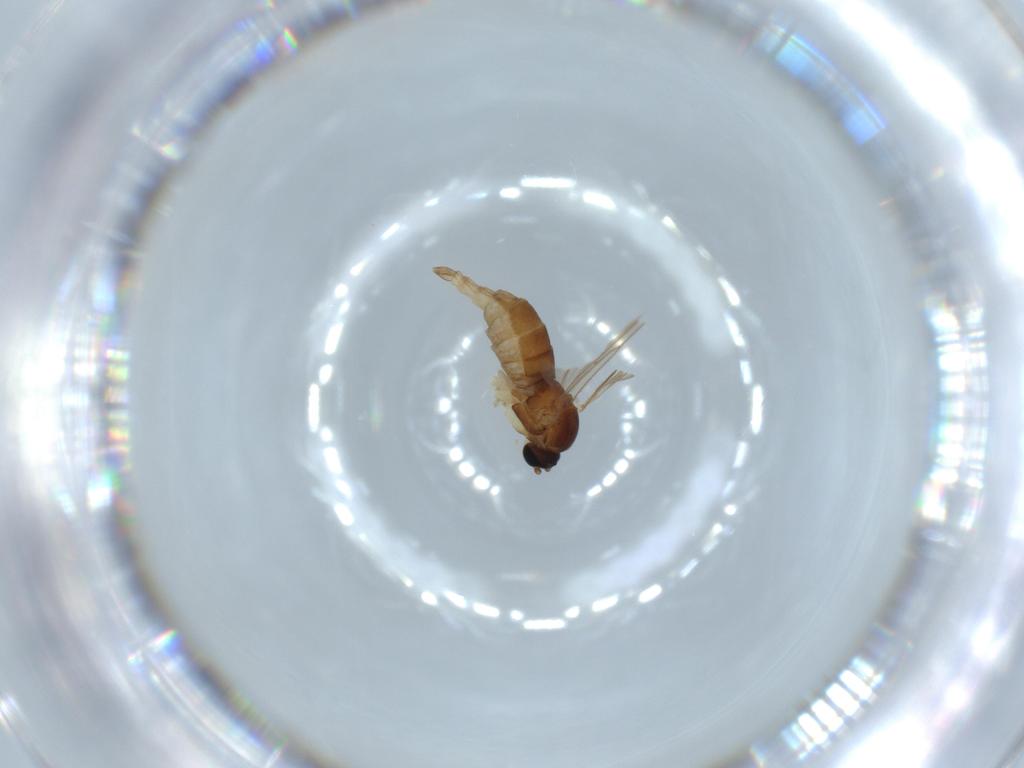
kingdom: Animalia
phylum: Arthropoda
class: Insecta
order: Diptera
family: Sciaridae
